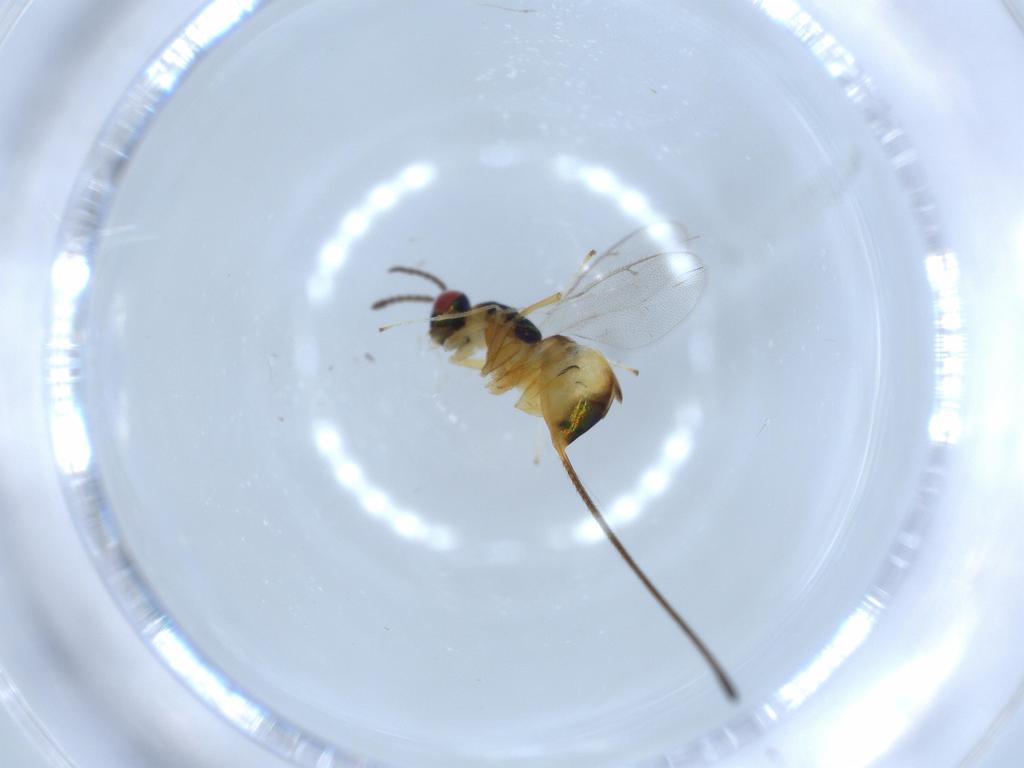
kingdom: Animalia
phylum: Arthropoda
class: Insecta
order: Hymenoptera
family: Pteromalidae
